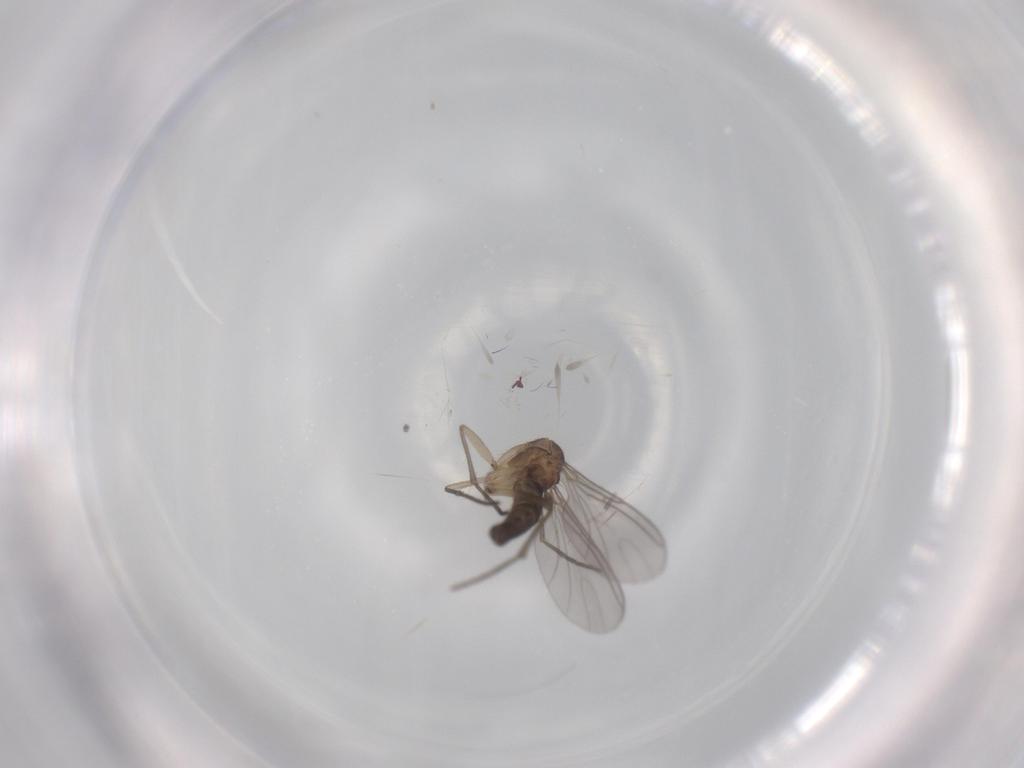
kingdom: Animalia
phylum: Arthropoda
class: Insecta
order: Diptera
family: Sciaridae
